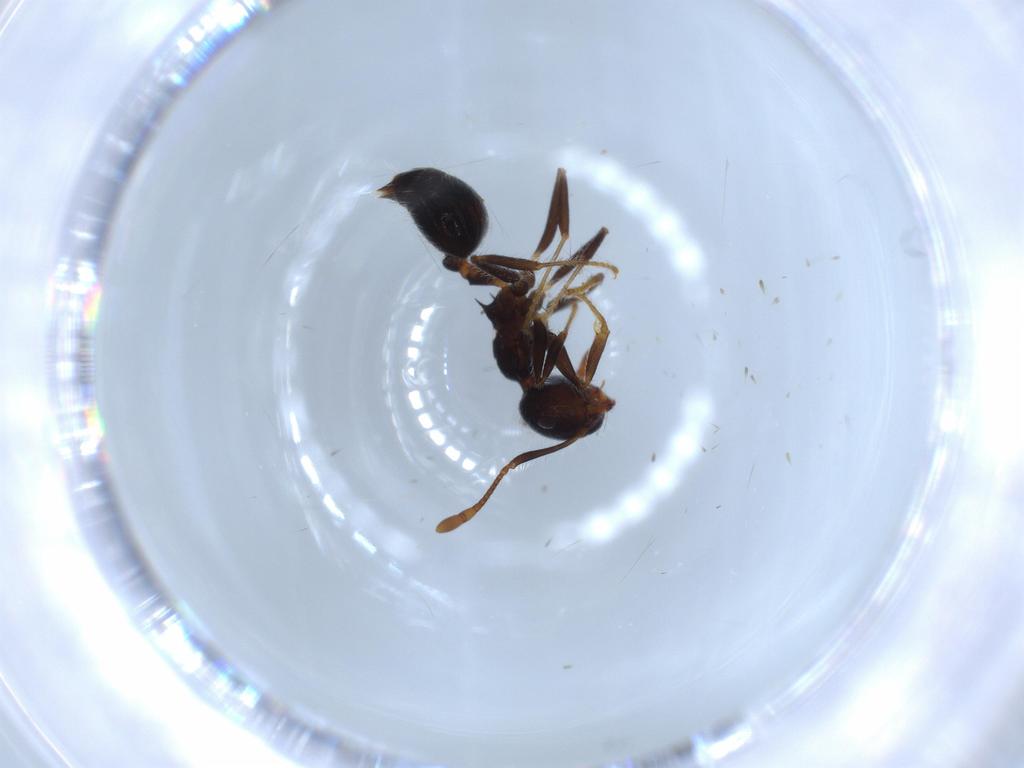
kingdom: Animalia
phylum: Arthropoda
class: Insecta
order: Hymenoptera
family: Formicidae
